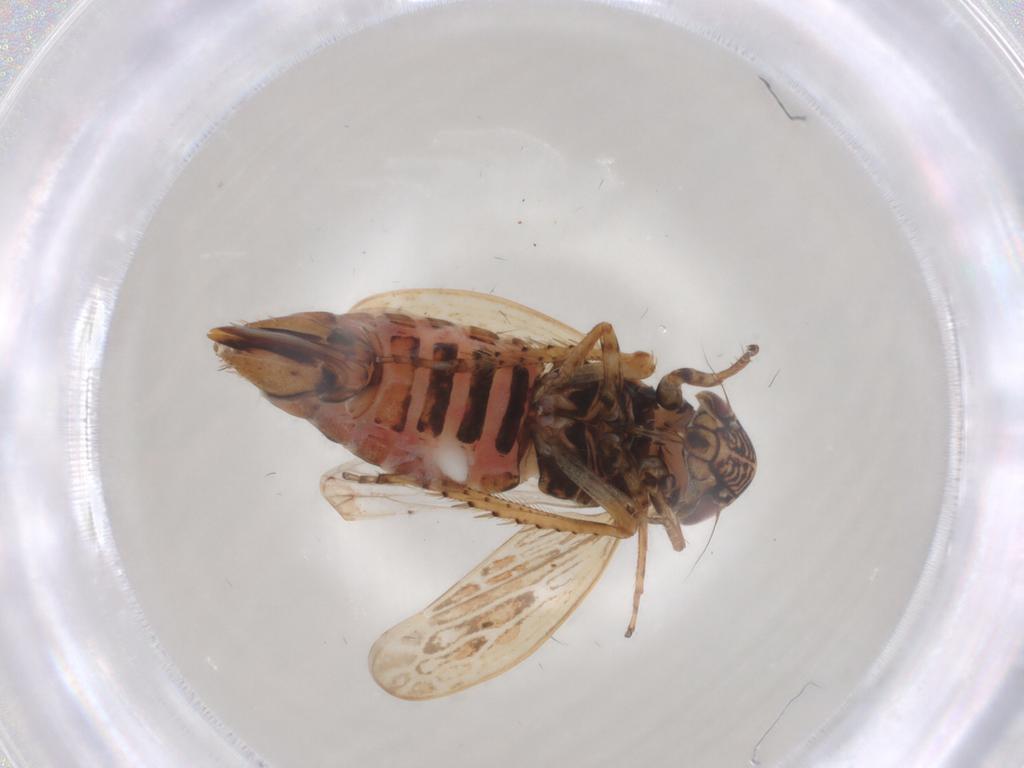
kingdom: Animalia
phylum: Arthropoda
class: Insecta
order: Hemiptera
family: Cicadellidae
